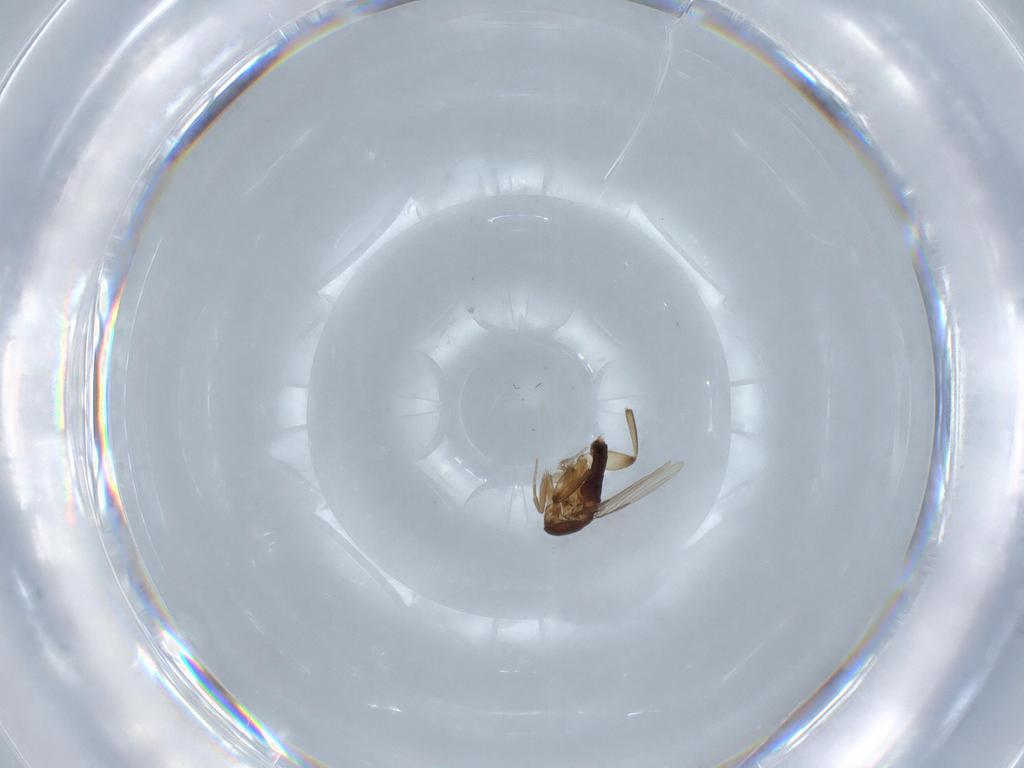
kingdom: Animalia
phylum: Arthropoda
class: Insecta
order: Diptera
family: Phoridae
